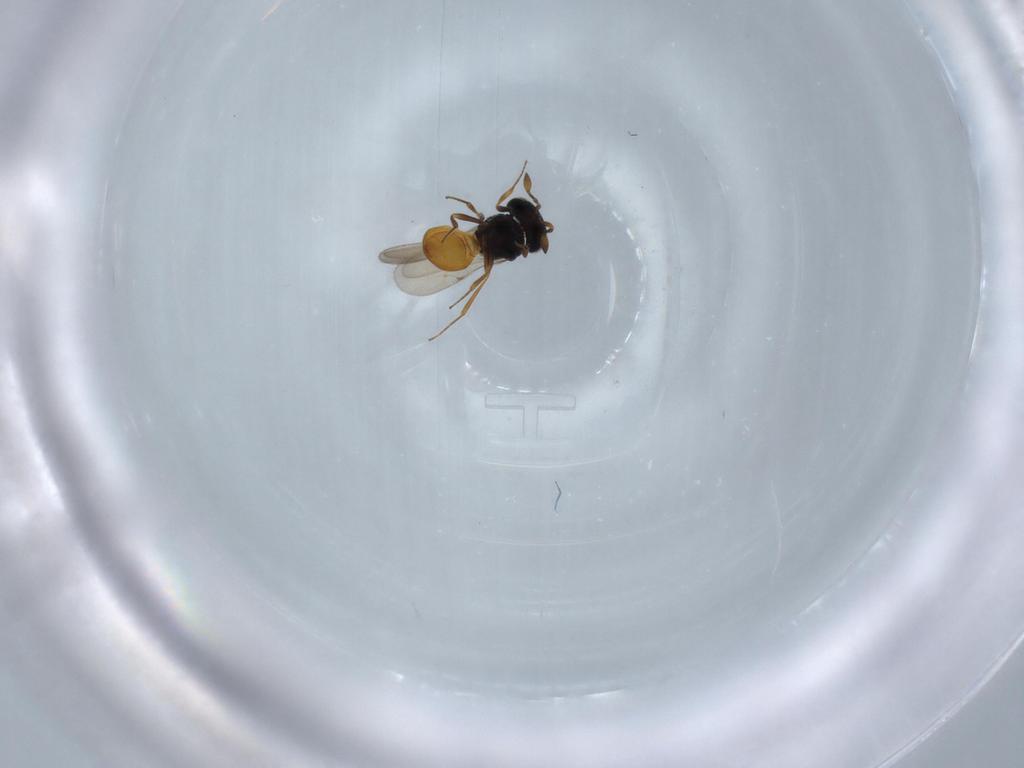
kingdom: Animalia
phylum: Arthropoda
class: Insecta
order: Hymenoptera
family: Scelionidae
